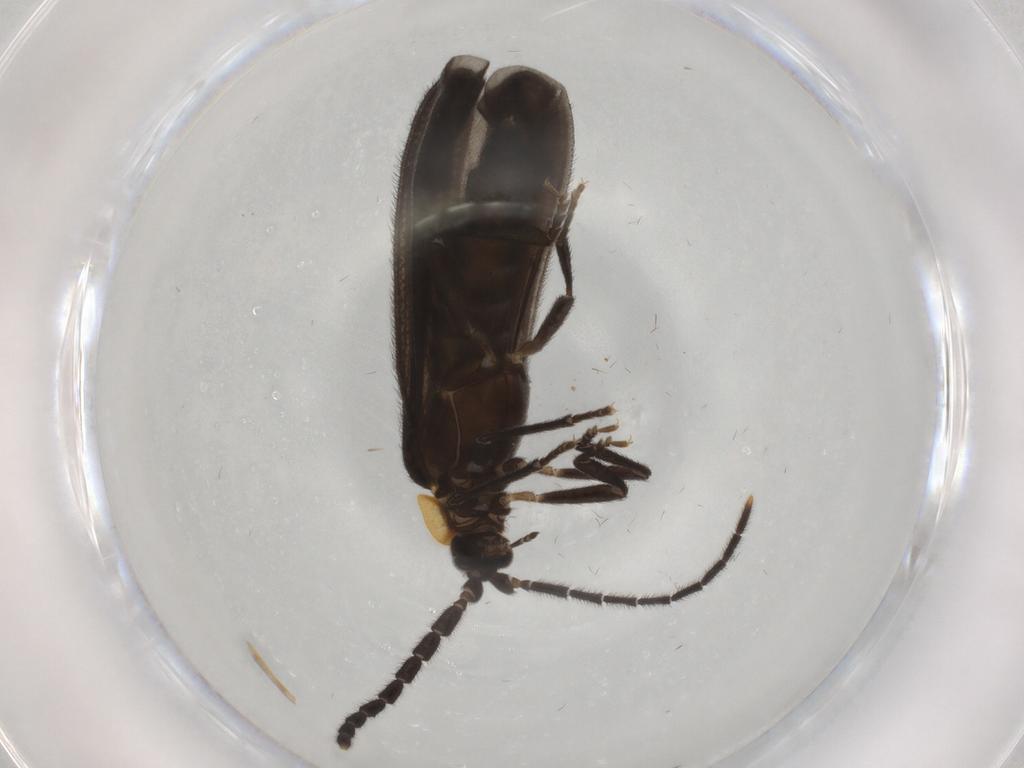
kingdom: Animalia
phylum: Arthropoda
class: Insecta
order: Coleoptera
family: Lycidae
